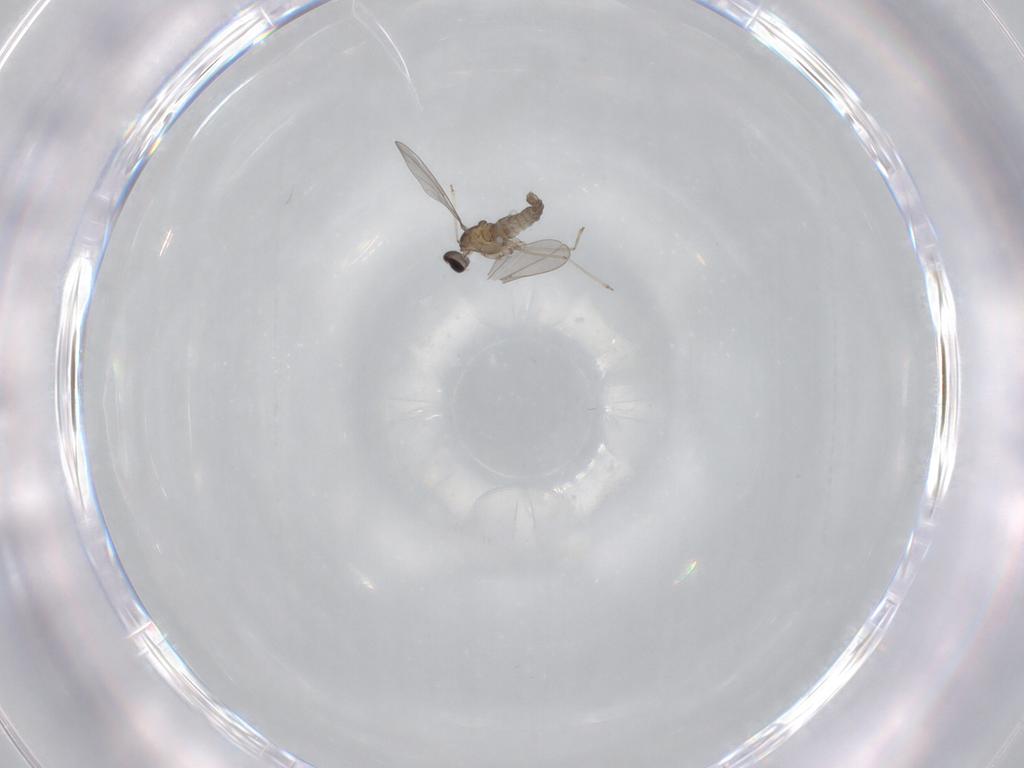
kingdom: Animalia
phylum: Arthropoda
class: Insecta
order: Diptera
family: Cecidomyiidae
